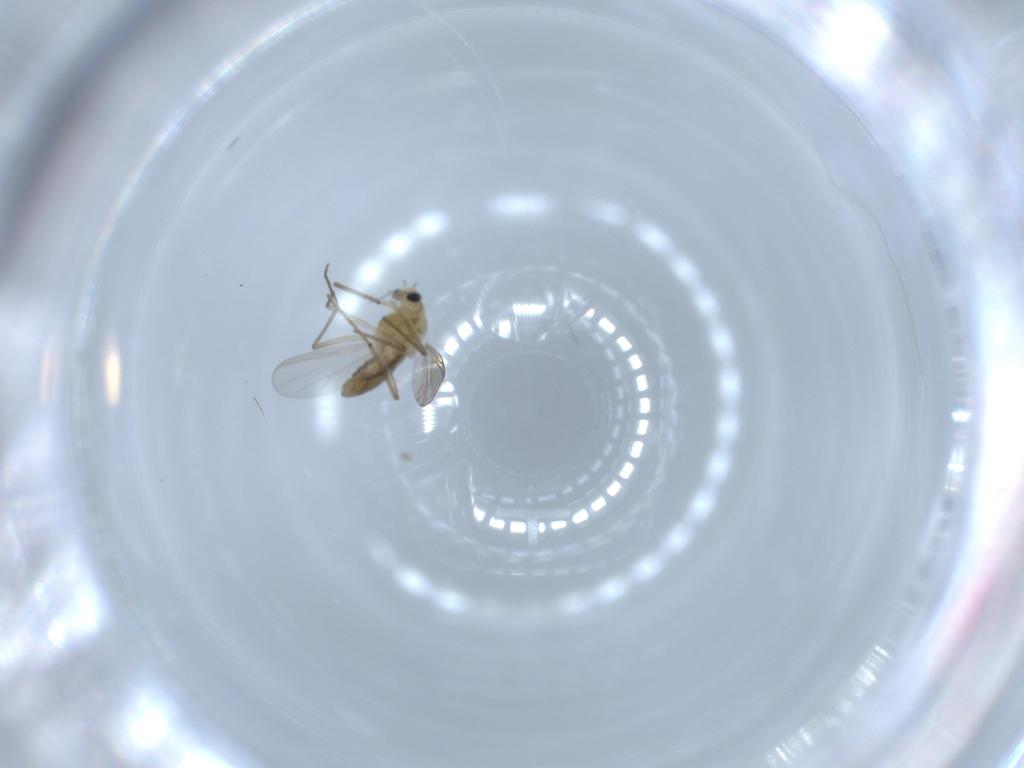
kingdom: Animalia
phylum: Arthropoda
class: Insecta
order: Diptera
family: Chironomidae
